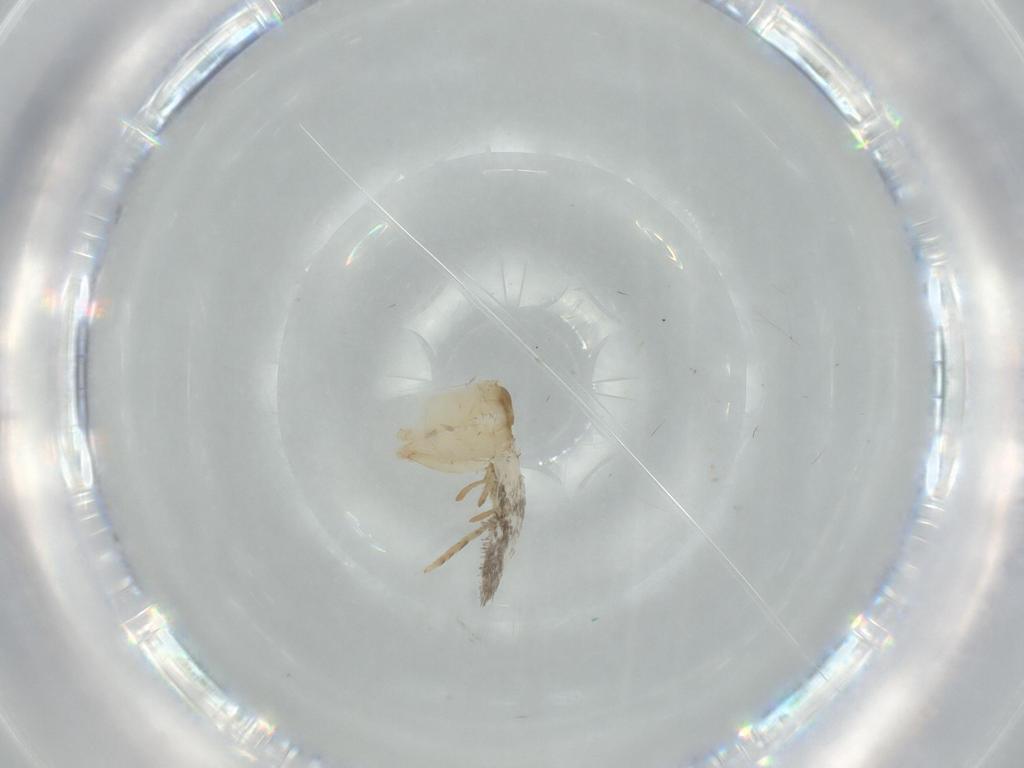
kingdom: Animalia
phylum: Arthropoda
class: Insecta
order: Lepidoptera
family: Tineidae
